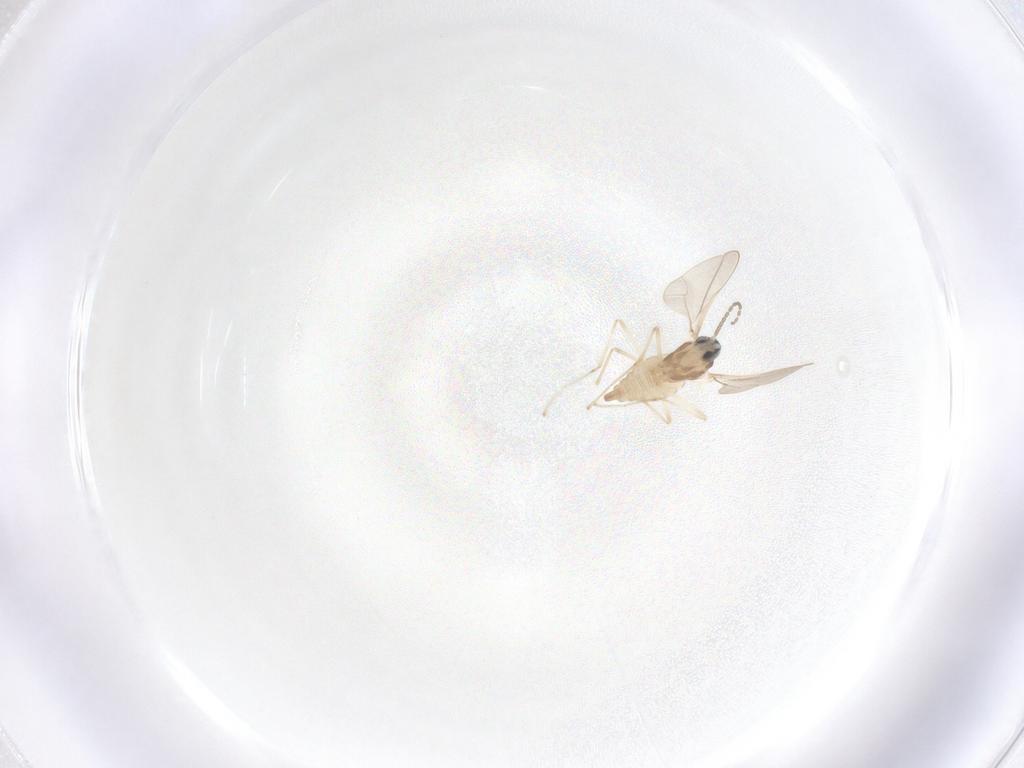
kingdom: Animalia
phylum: Arthropoda
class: Insecta
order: Diptera
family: Cecidomyiidae
